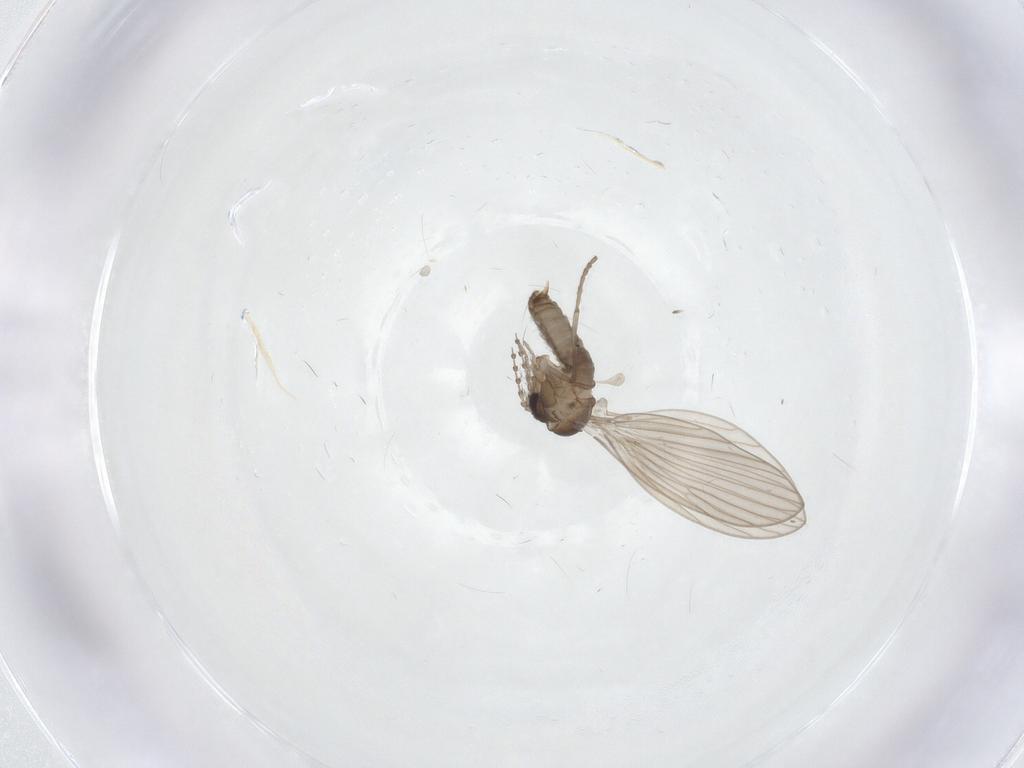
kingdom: Animalia
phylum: Arthropoda
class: Insecta
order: Diptera
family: Psychodidae
